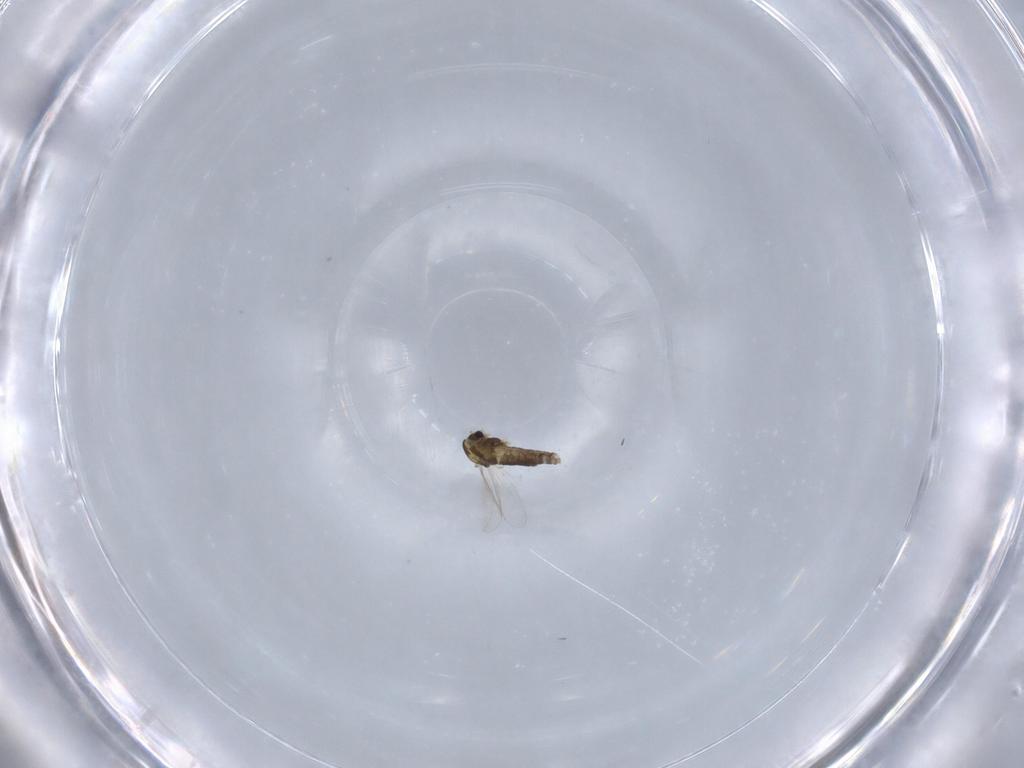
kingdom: Animalia
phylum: Arthropoda
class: Insecta
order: Diptera
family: Chironomidae
